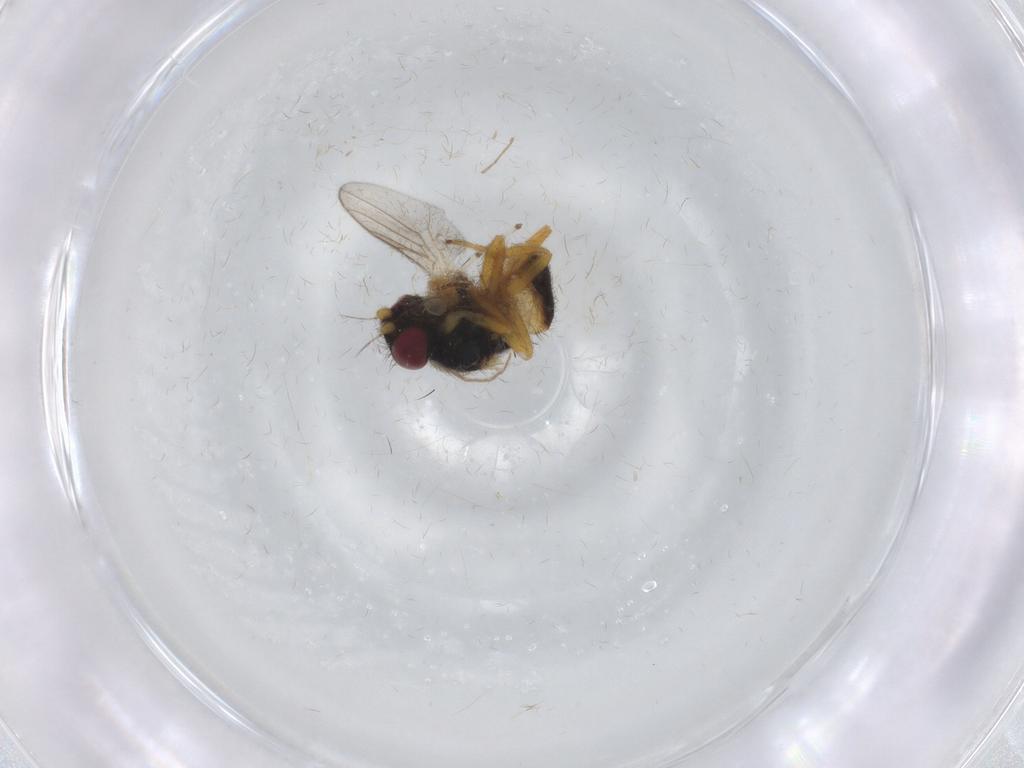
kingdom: Animalia
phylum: Arthropoda
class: Insecta
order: Diptera
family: Chloropidae
